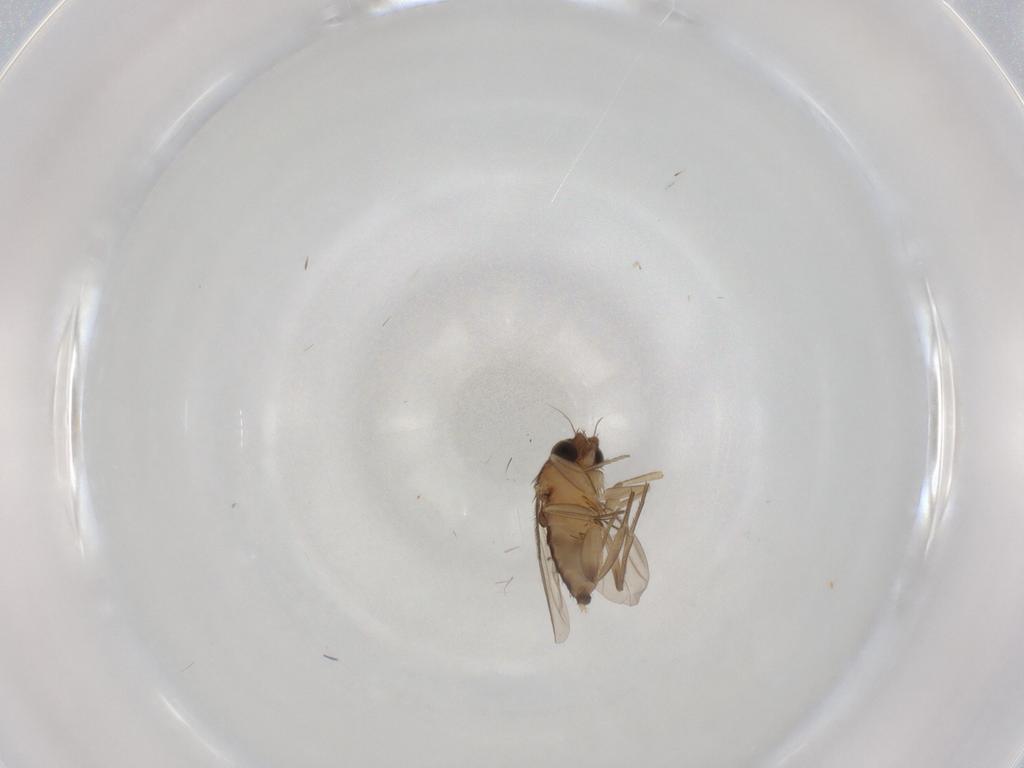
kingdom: Animalia
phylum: Arthropoda
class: Insecta
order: Diptera
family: Phoridae
